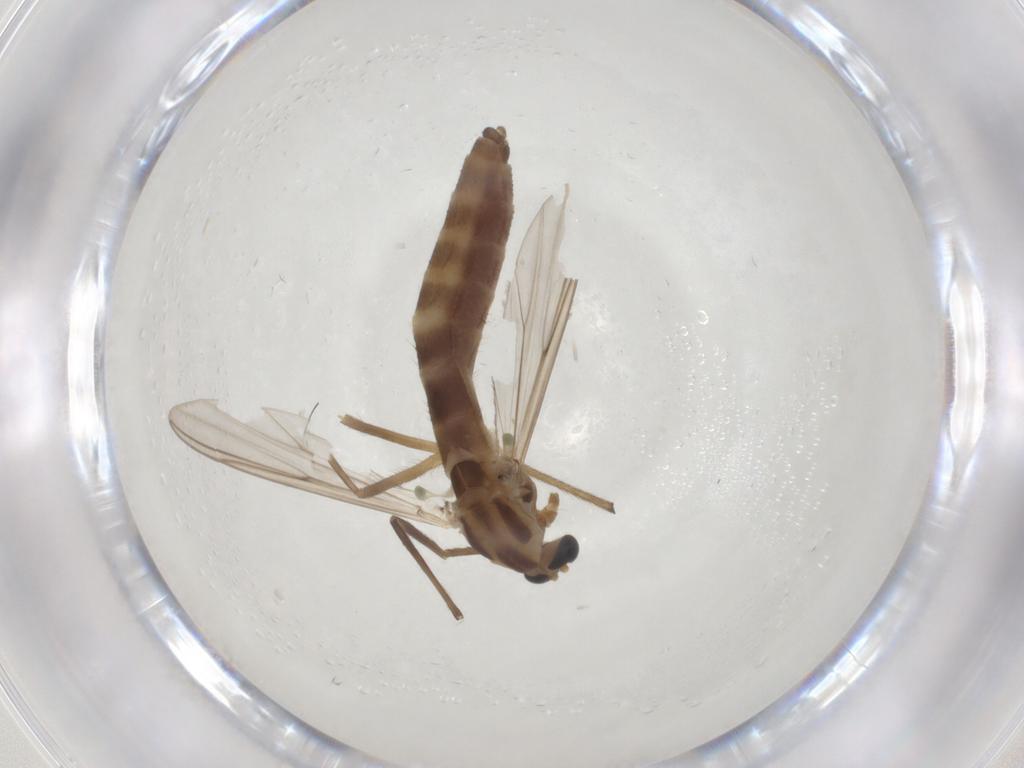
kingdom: Animalia
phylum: Arthropoda
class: Insecta
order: Diptera
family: Chironomidae
